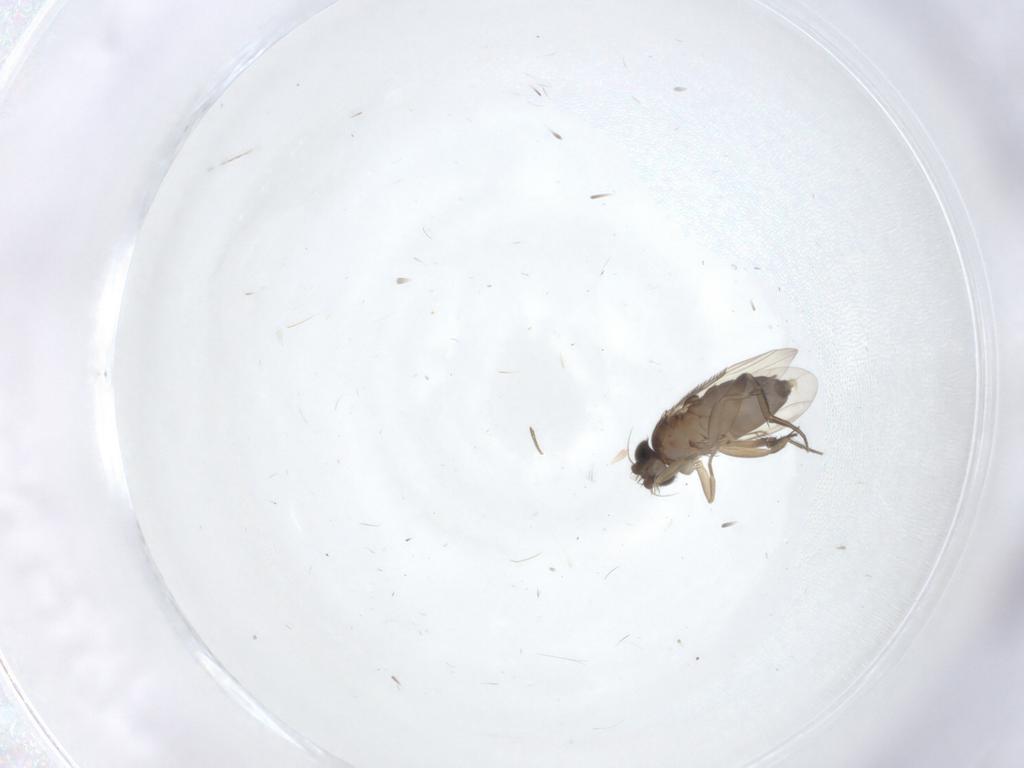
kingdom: Animalia
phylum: Arthropoda
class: Insecta
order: Diptera
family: Phoridae
